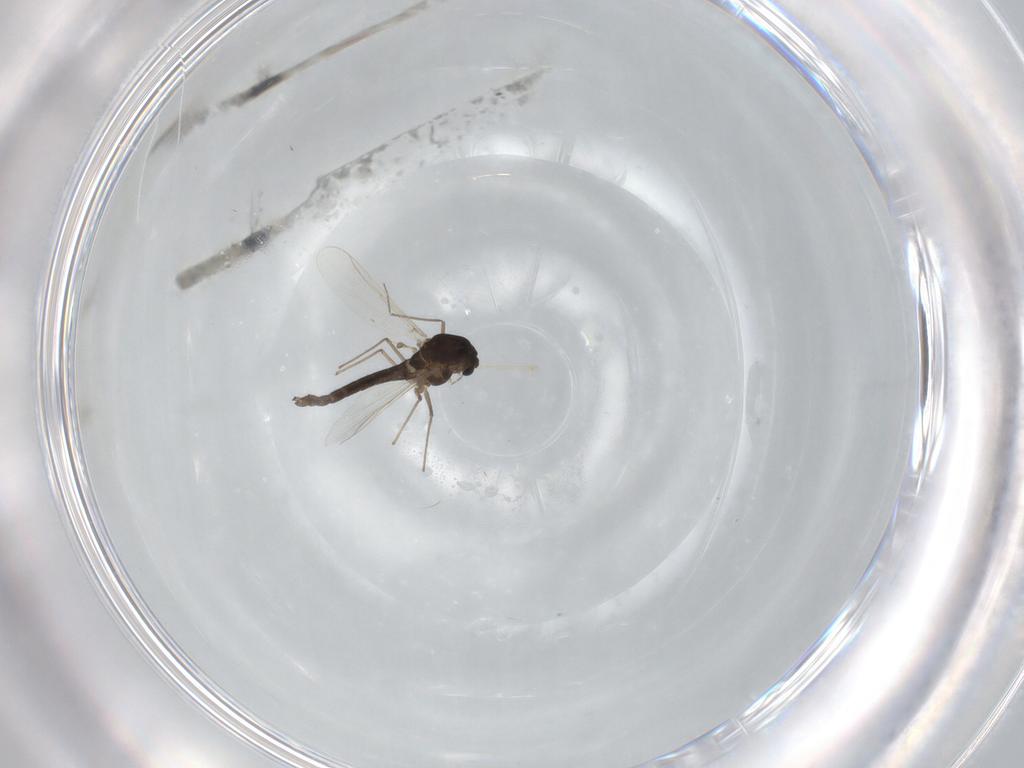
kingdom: Animalia
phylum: Arthropoda
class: Insecta
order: Diptera
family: Chironomidae
